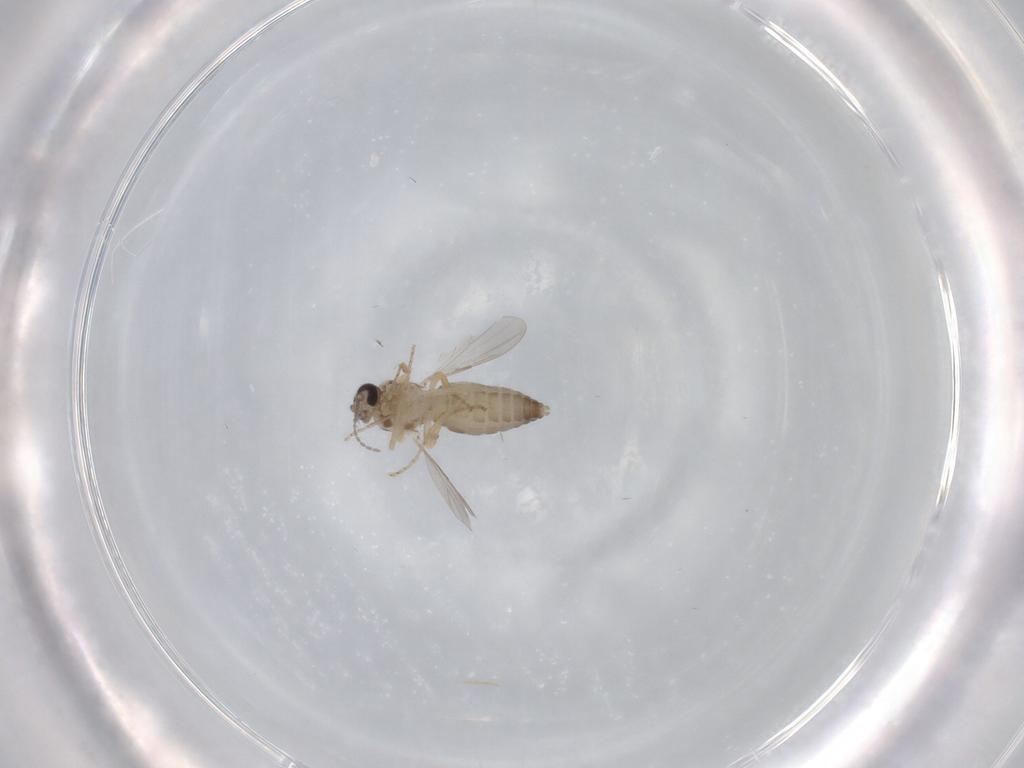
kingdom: Animalia
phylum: Arthropoda
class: Insecta
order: Diptera
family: Ceratopogonidae
